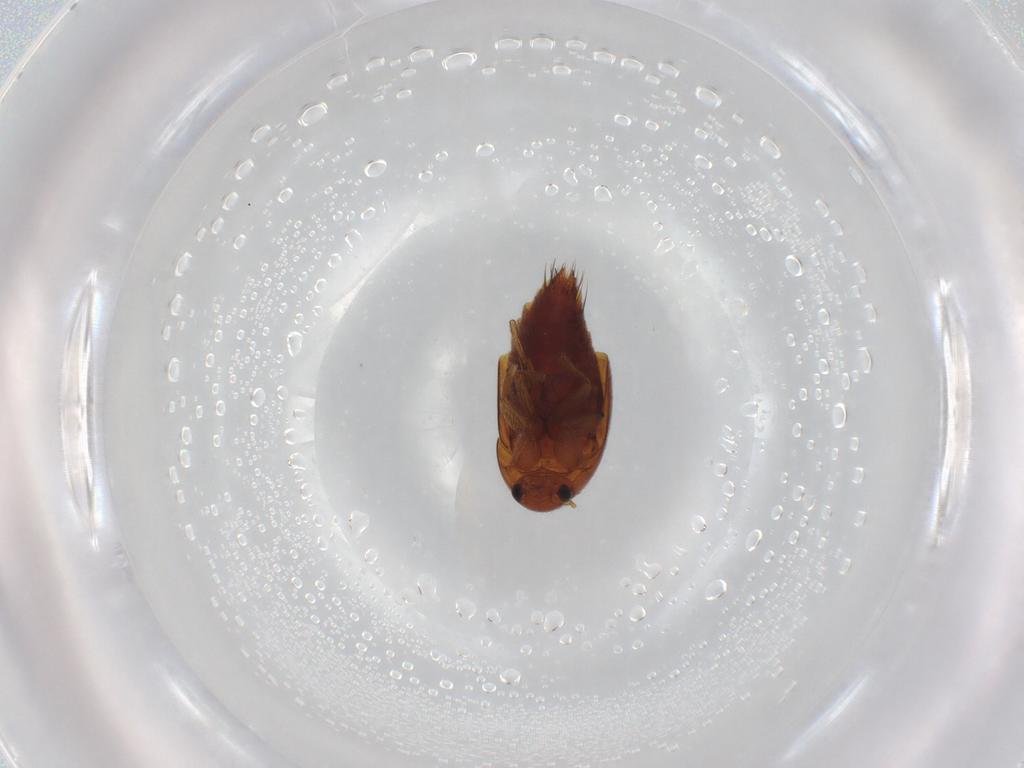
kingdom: Animalia
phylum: Arthropoda
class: Insecta
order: Coleoptera
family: Staphylinidae
